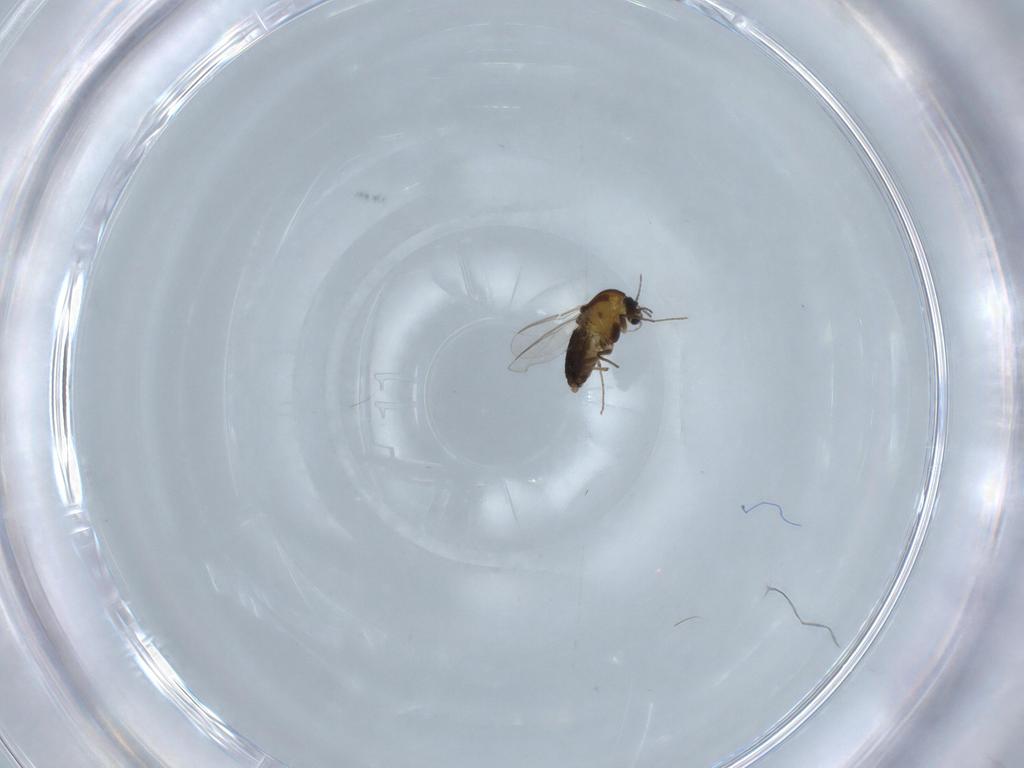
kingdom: Animalia
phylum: Arthropoda
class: Insecta
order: Diptera
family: Chironomidae
